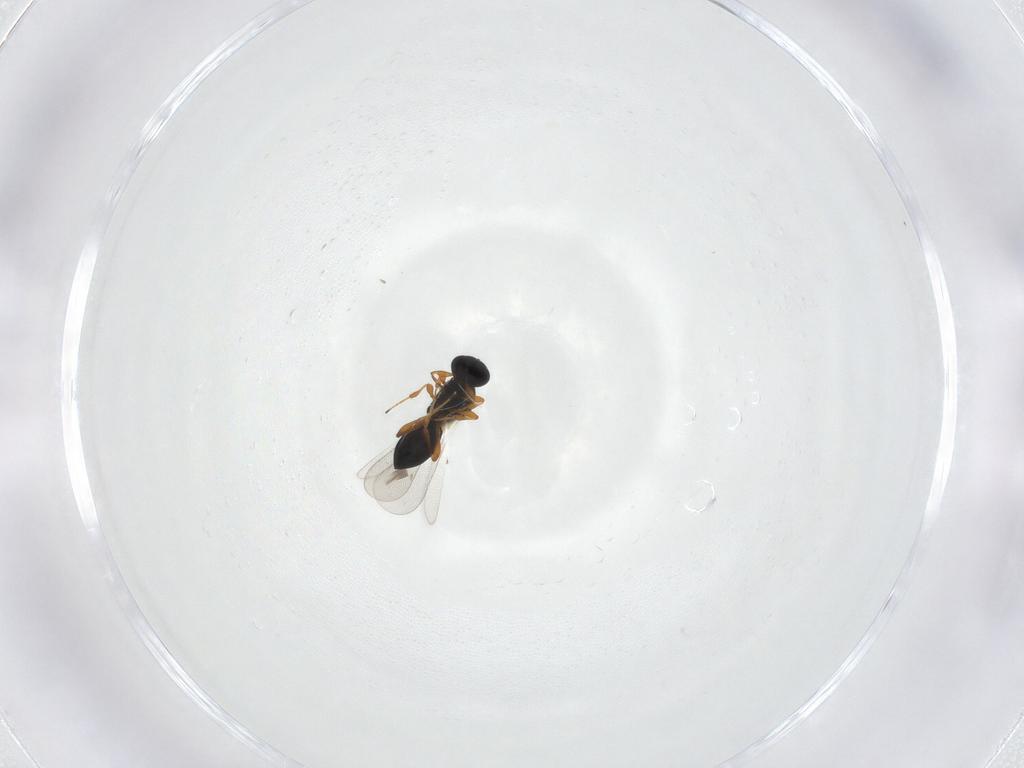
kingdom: Animalia
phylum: Arthropoda
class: Insecta
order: Hymenoptera
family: Platygastridae
